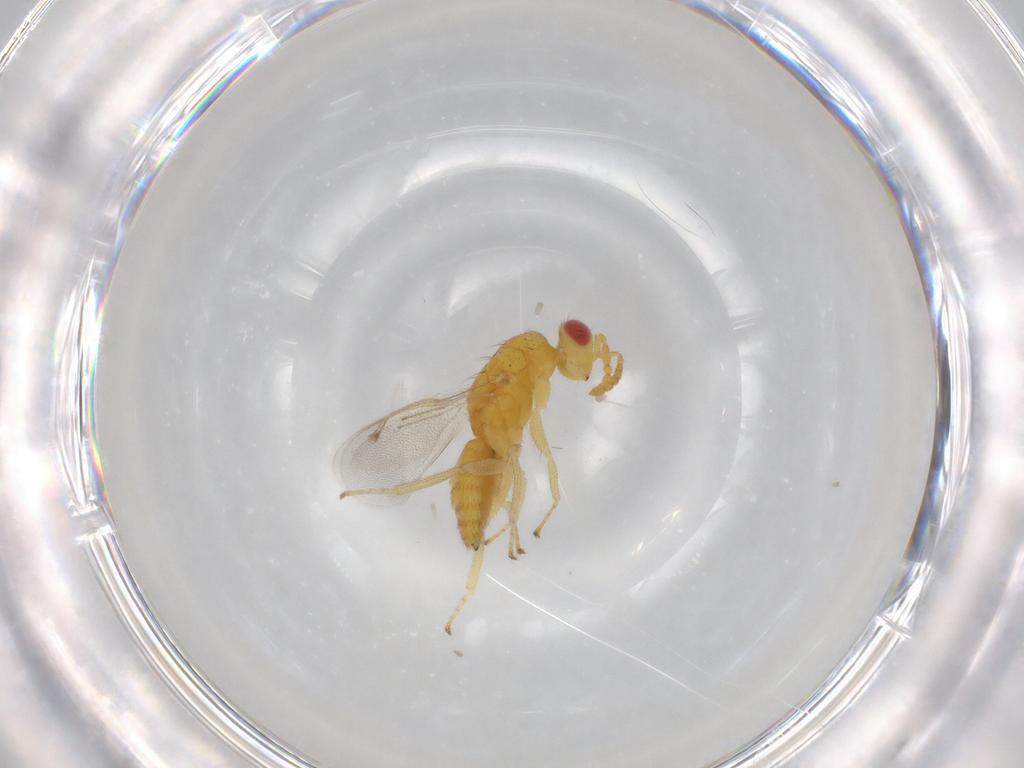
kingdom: Animalia
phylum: Arthropoda
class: Insecta
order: Hymenoptera
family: Eulophidae
